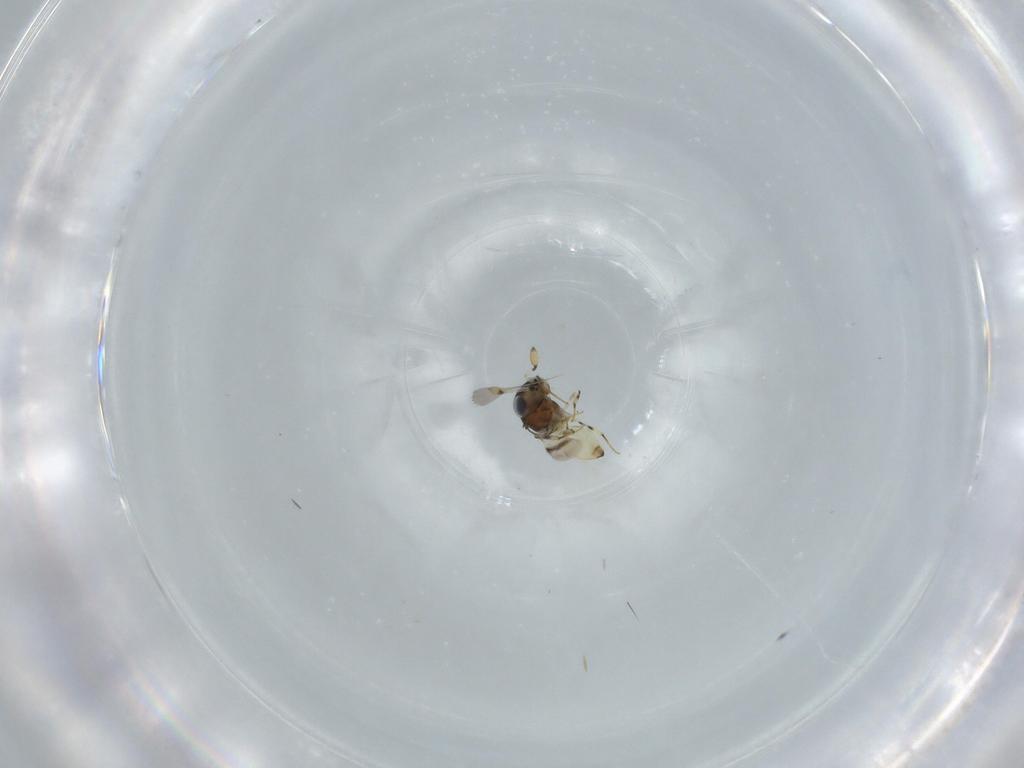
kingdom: Animalia
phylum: Arthropoda
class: Insecta
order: Hymenoptera
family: Scelionidae
